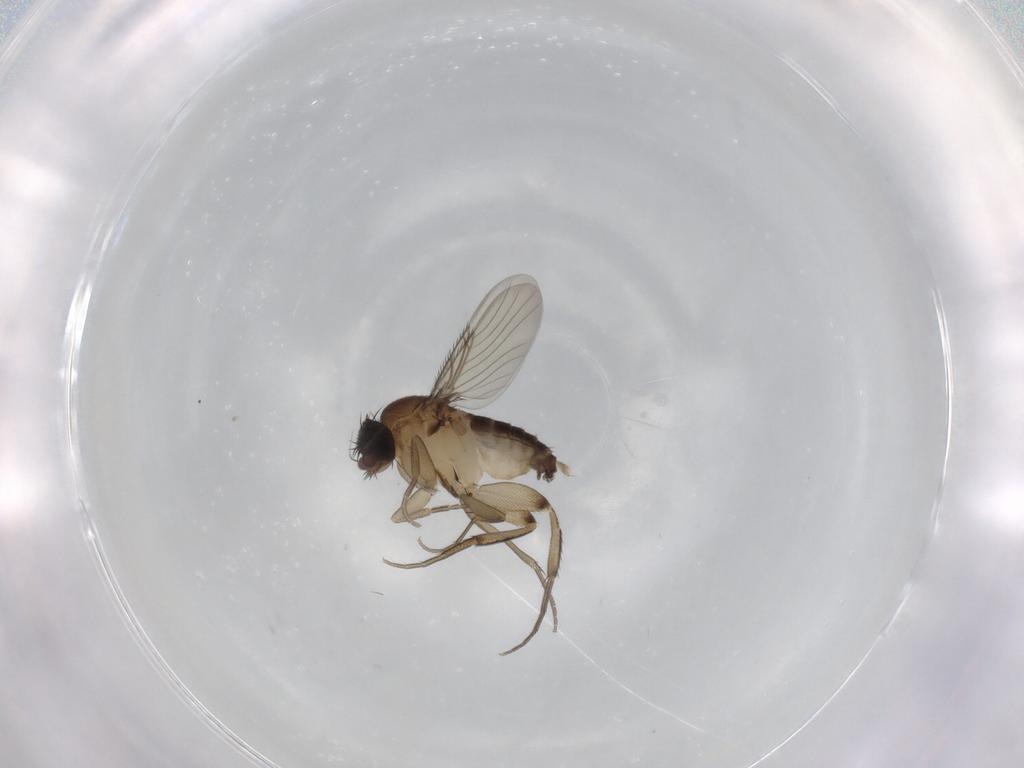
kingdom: Animalia
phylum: Arthropoda
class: Insecta
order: Diptera
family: Phoridae
